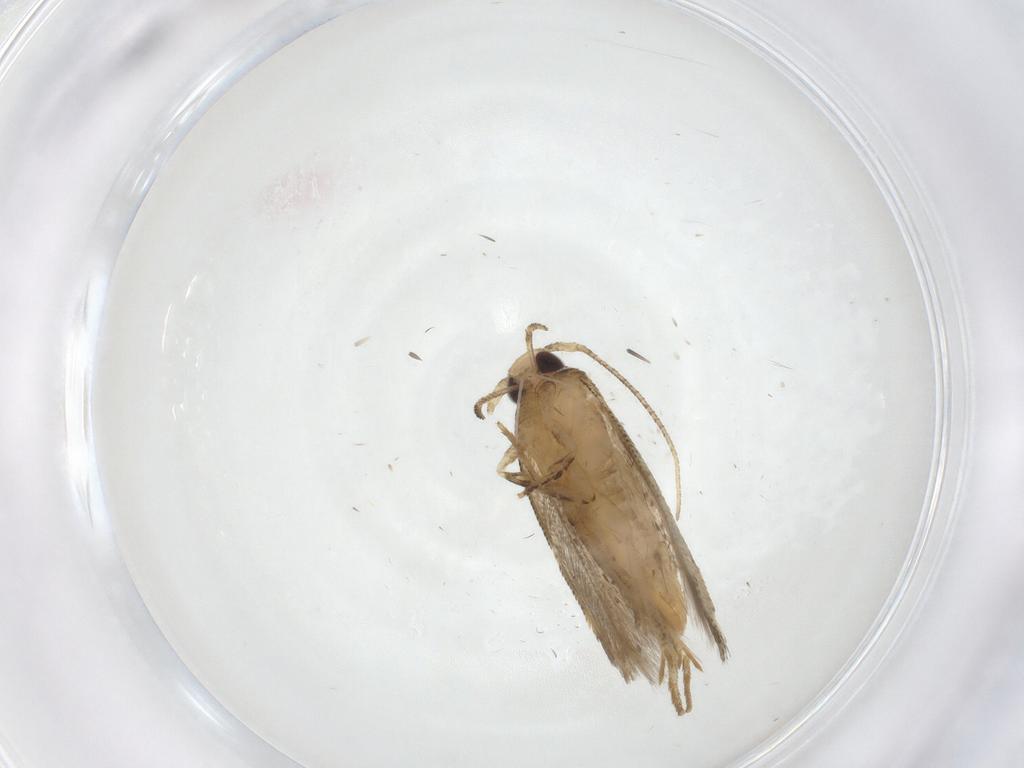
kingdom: Animalia
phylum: Arthropoda
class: Insecta
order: Lepidoptera
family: Gelechiidae
